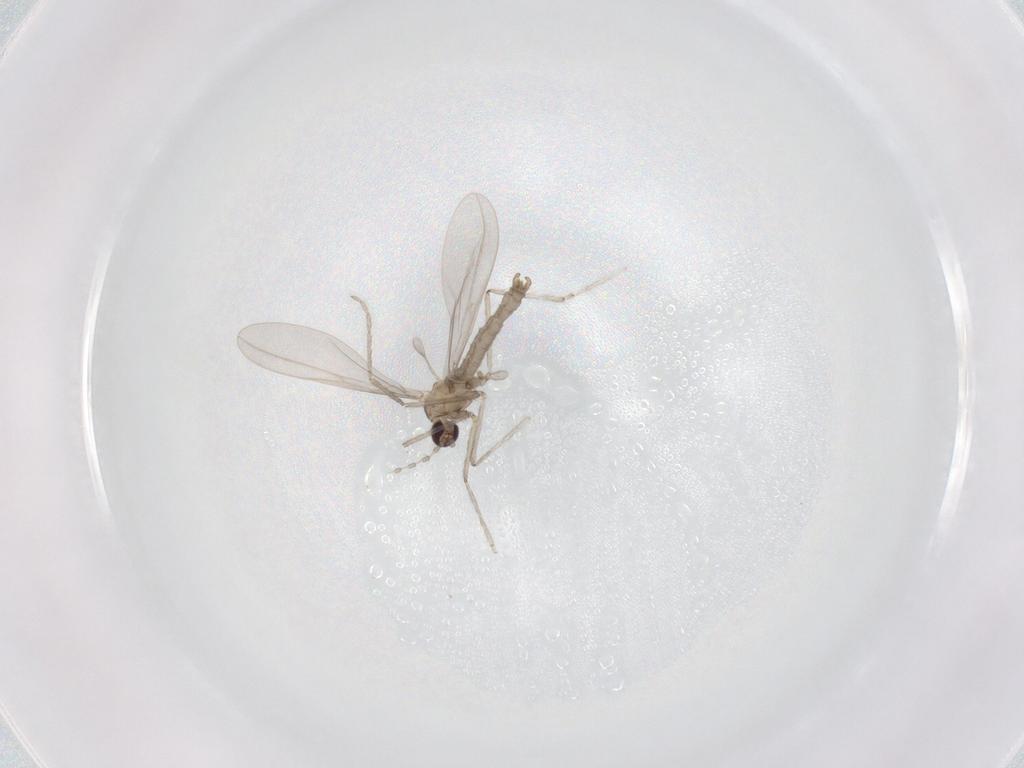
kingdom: Animalia
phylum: Arthropoda
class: Insecta
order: Diptera
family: Cecidomyiidae
